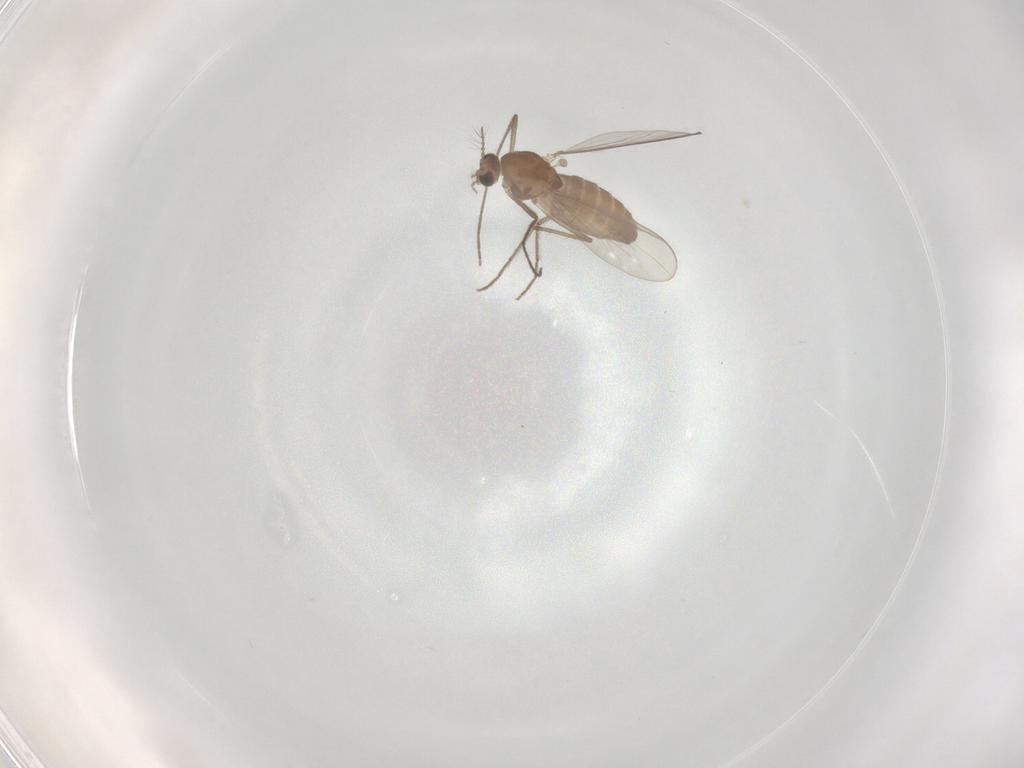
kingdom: Animalia
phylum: Arthropoda
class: Insecta
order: Diptera
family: Chironomidae
